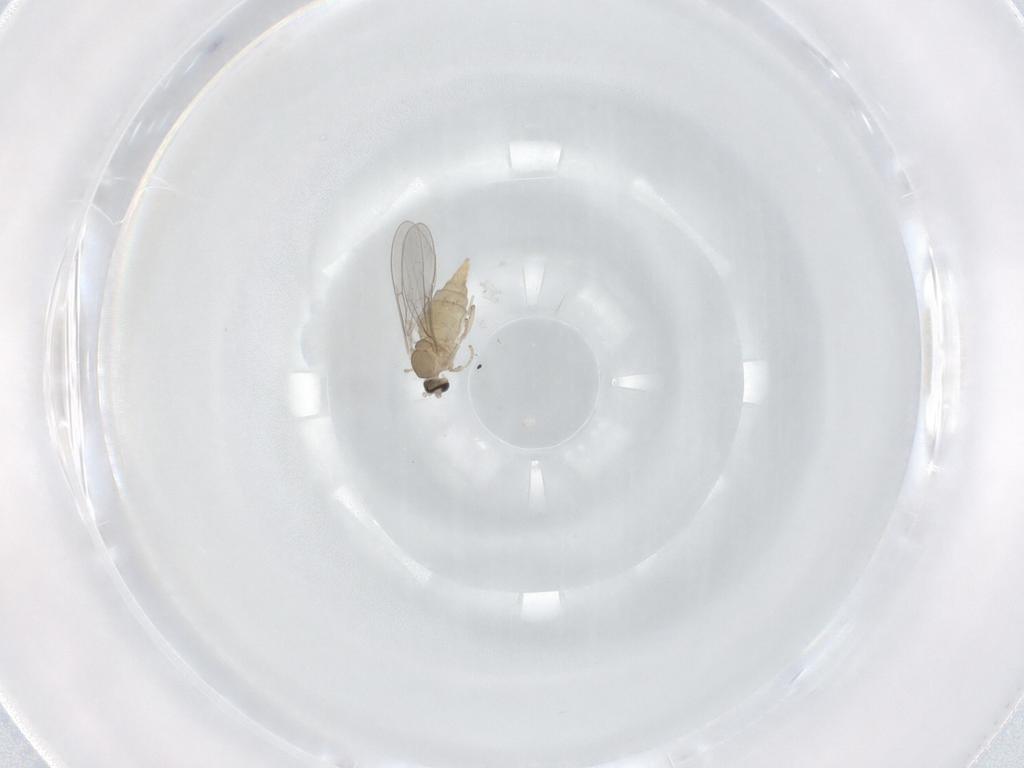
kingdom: Animalia
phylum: Arthropoda
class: Insecta
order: Diptera
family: Cecidomyiidae
